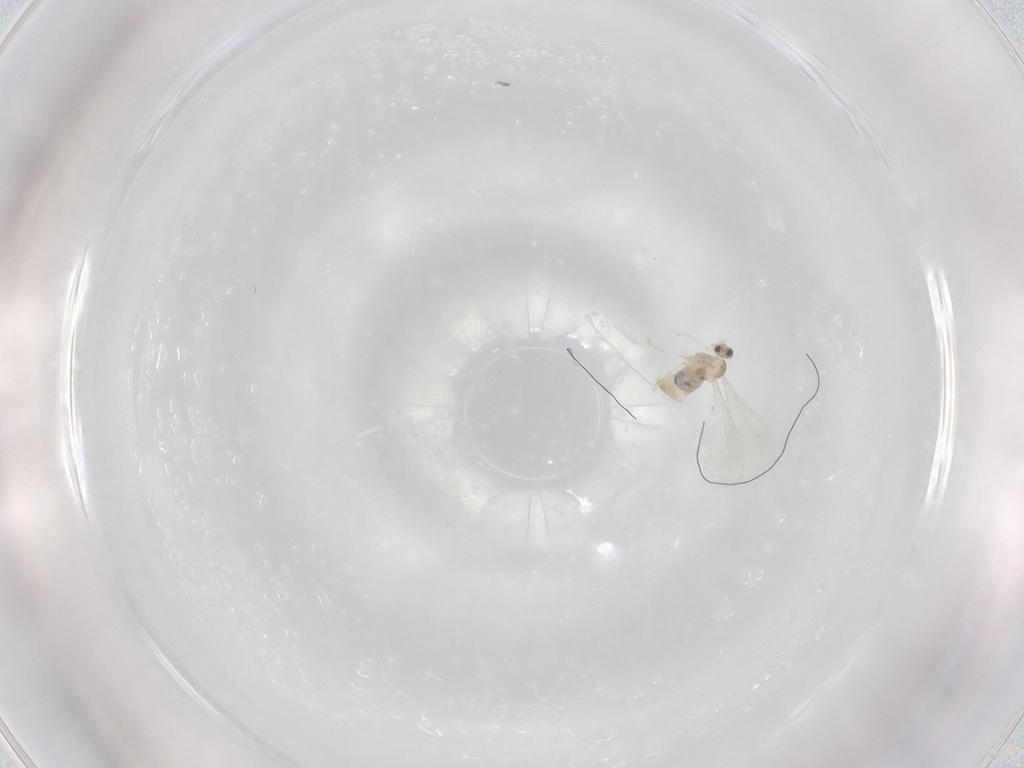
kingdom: Animalia
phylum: Arthropoda
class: Insecta
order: Diptera
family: Cecidomyiidae
